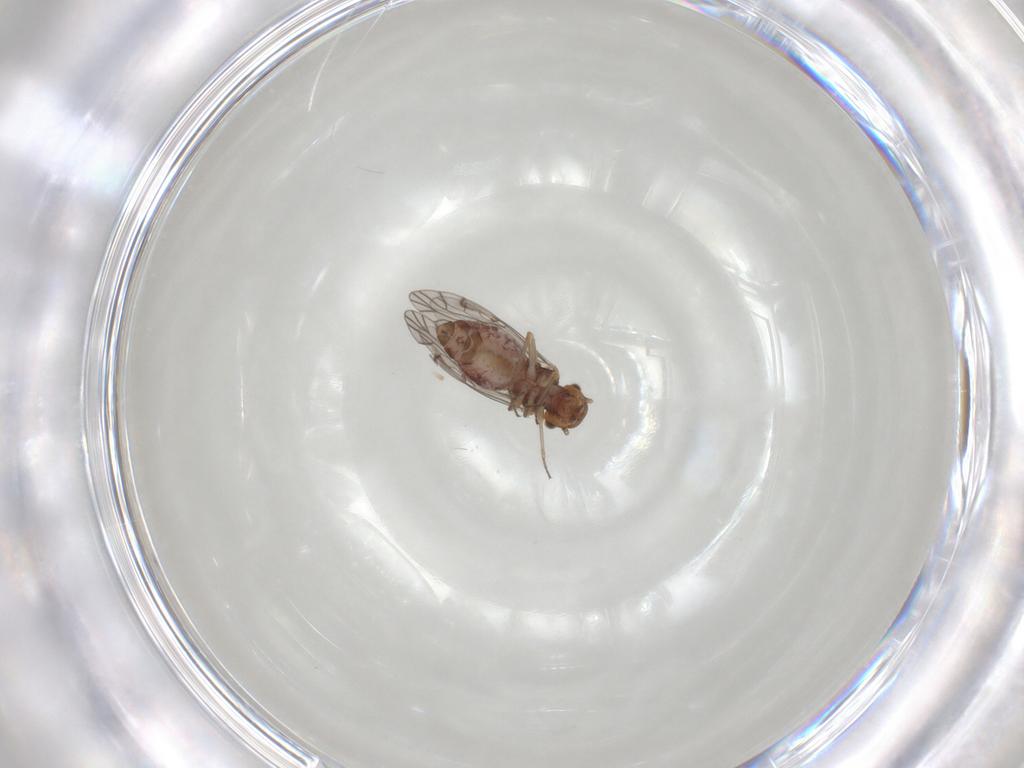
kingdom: Animalia
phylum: Arthropoda
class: Insecta
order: Psocodea
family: Lachesillidae
